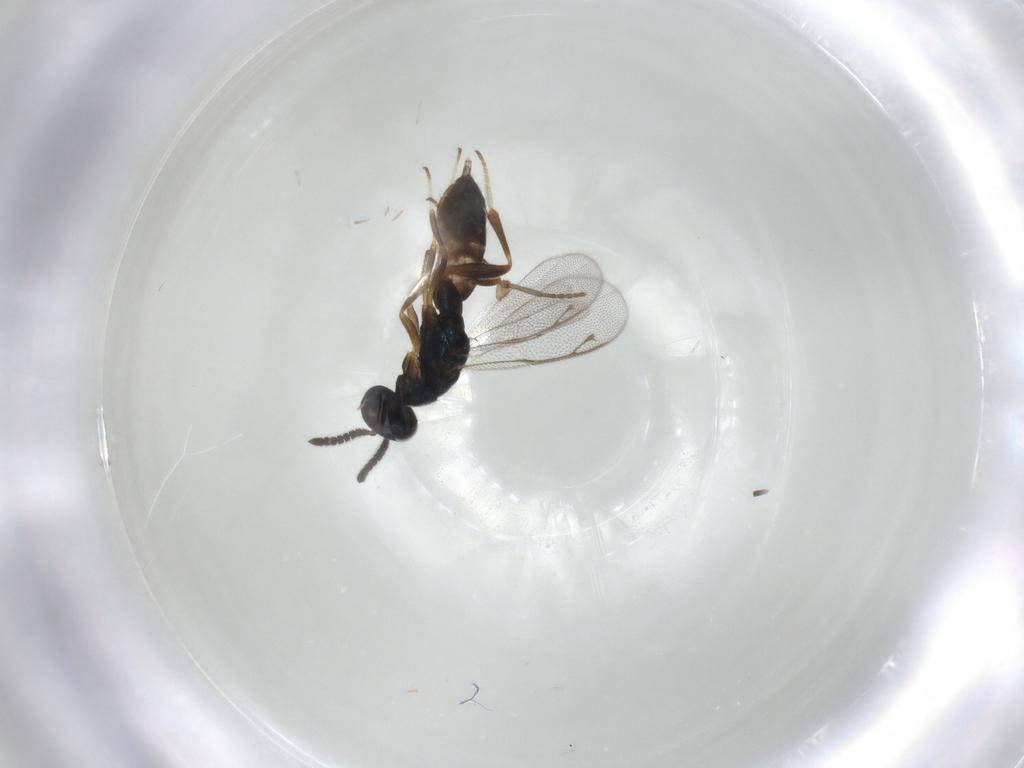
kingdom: Animalia
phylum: Arthropoda
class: Insecta
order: Hymenoptera
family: Cleonyminae
